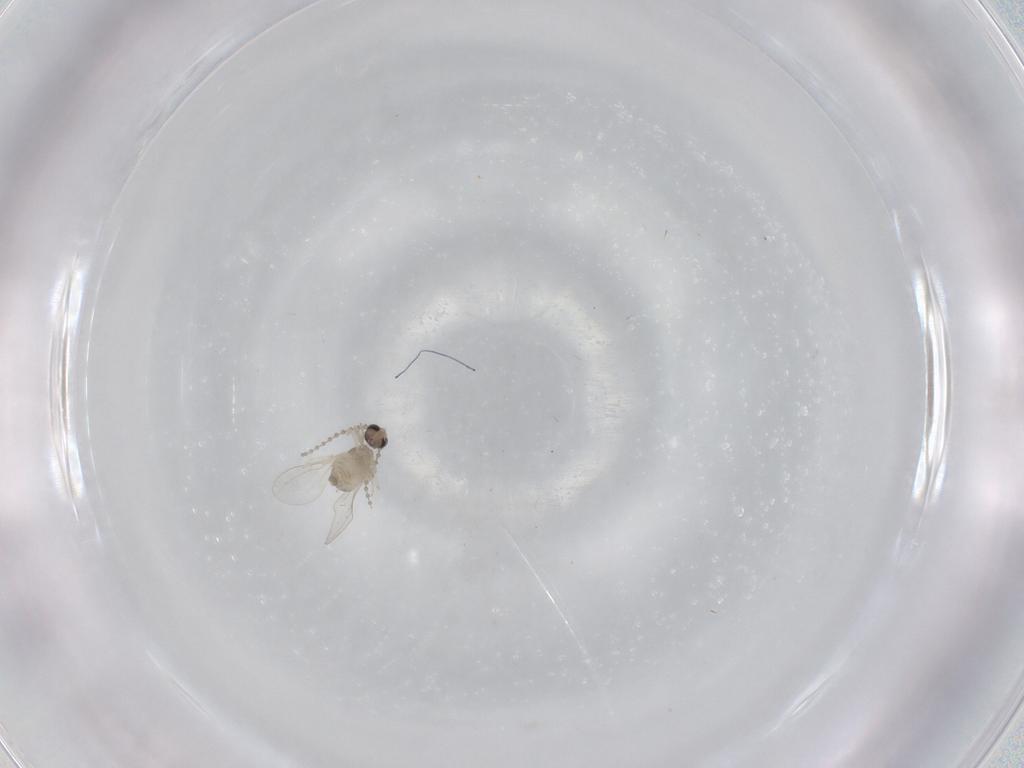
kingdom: Animalia
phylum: Arthropoda
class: Insecta
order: Diptera
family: Cecidomyiidae
